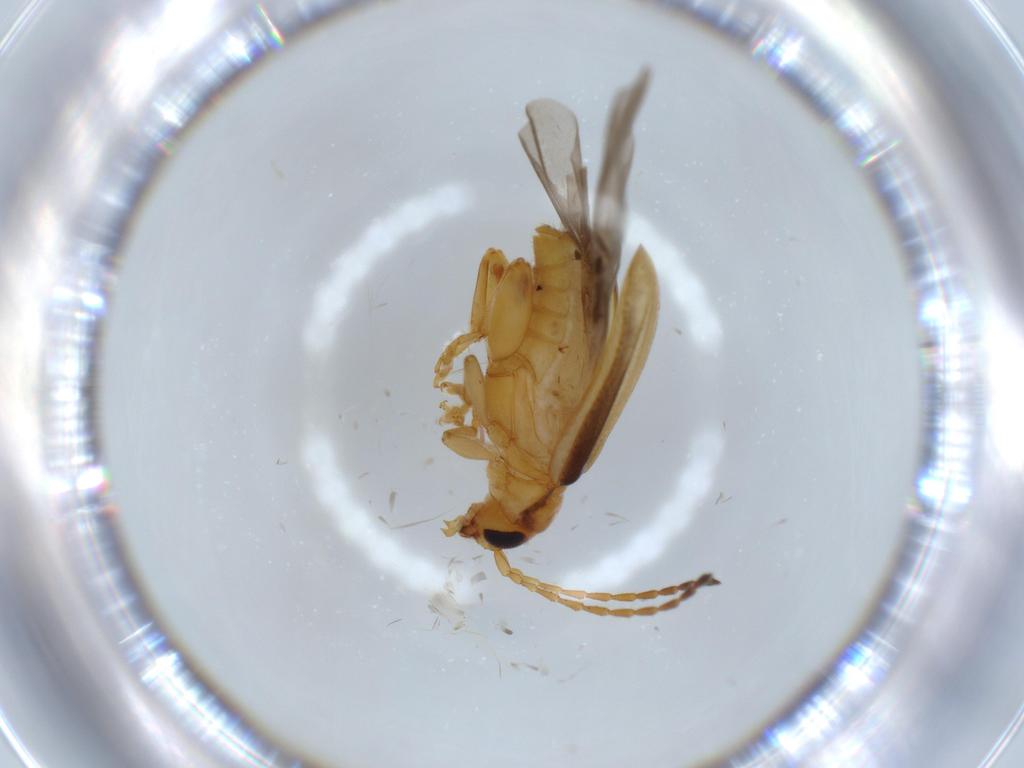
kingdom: Animalia
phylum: Arthropoda
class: Insecta
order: Coleoptera
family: Chrysomelidae
